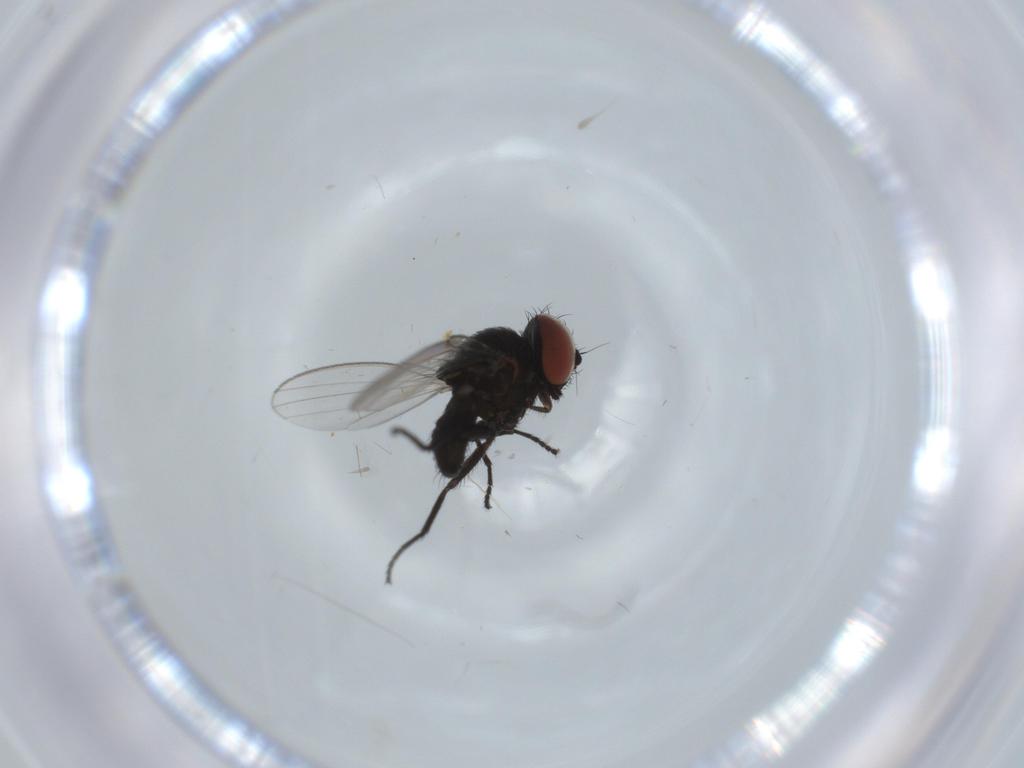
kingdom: Animalia
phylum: Arthropoda
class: Insecta
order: Diptera
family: Milichiidae
